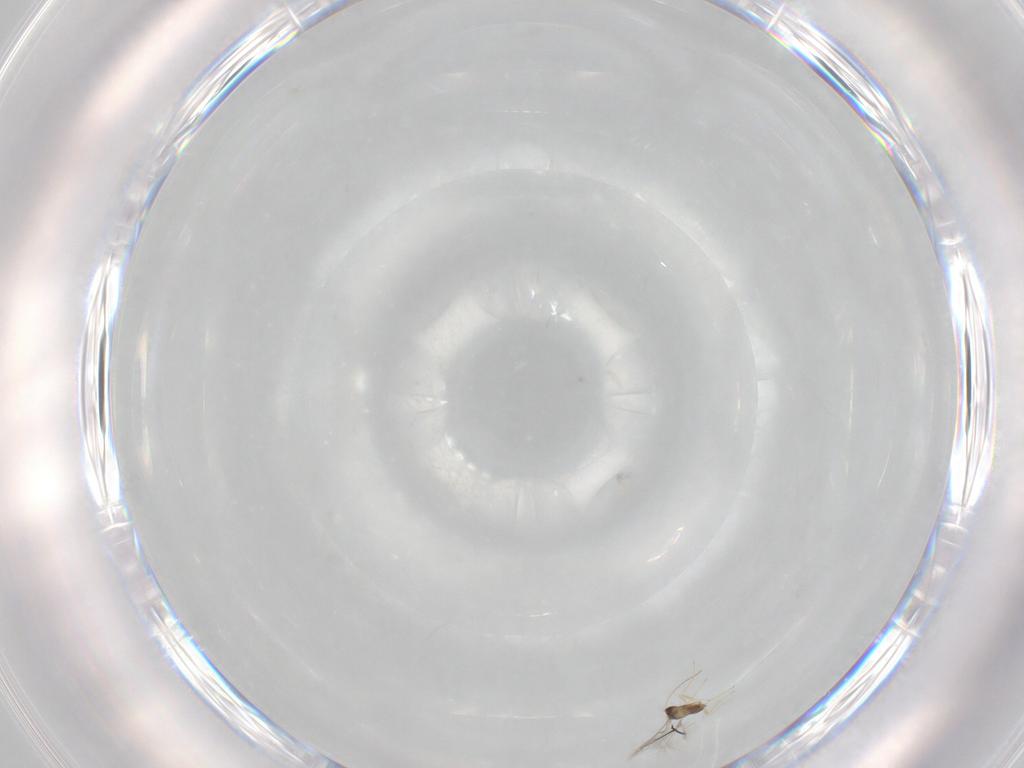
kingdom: Animalia
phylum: Arthropoda
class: Insecta
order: Hymenoptera
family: Mymaridae
